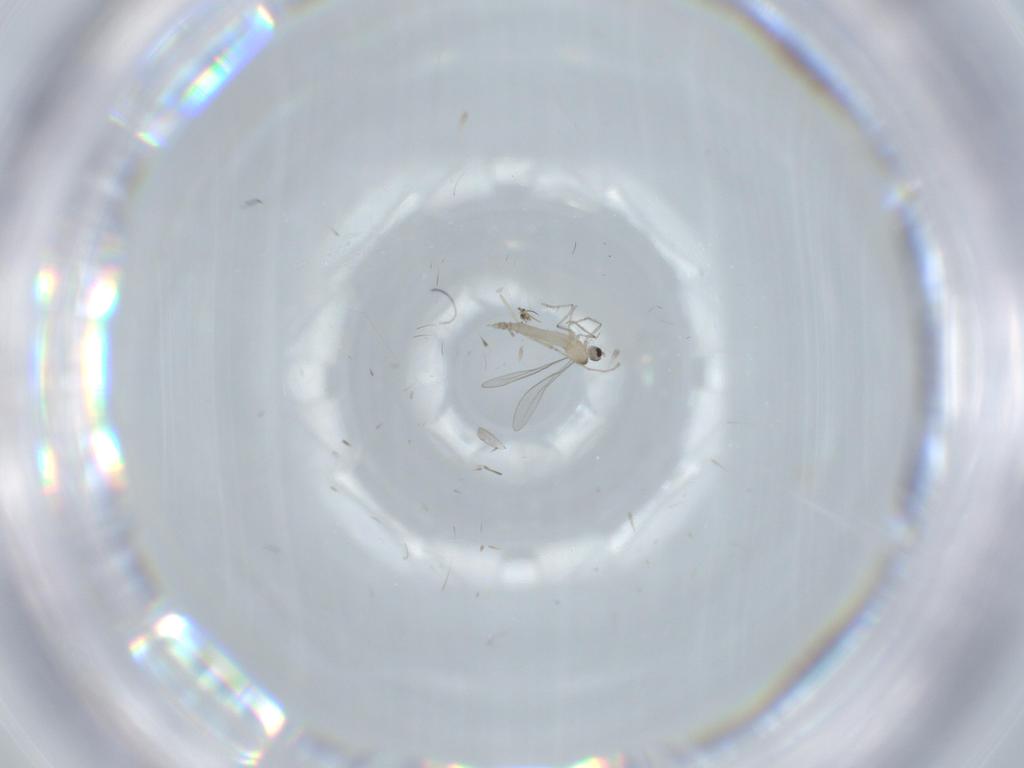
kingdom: Animalia
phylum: Arthropoda
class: Insecta
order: Diptera
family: Cecidomyiidae
